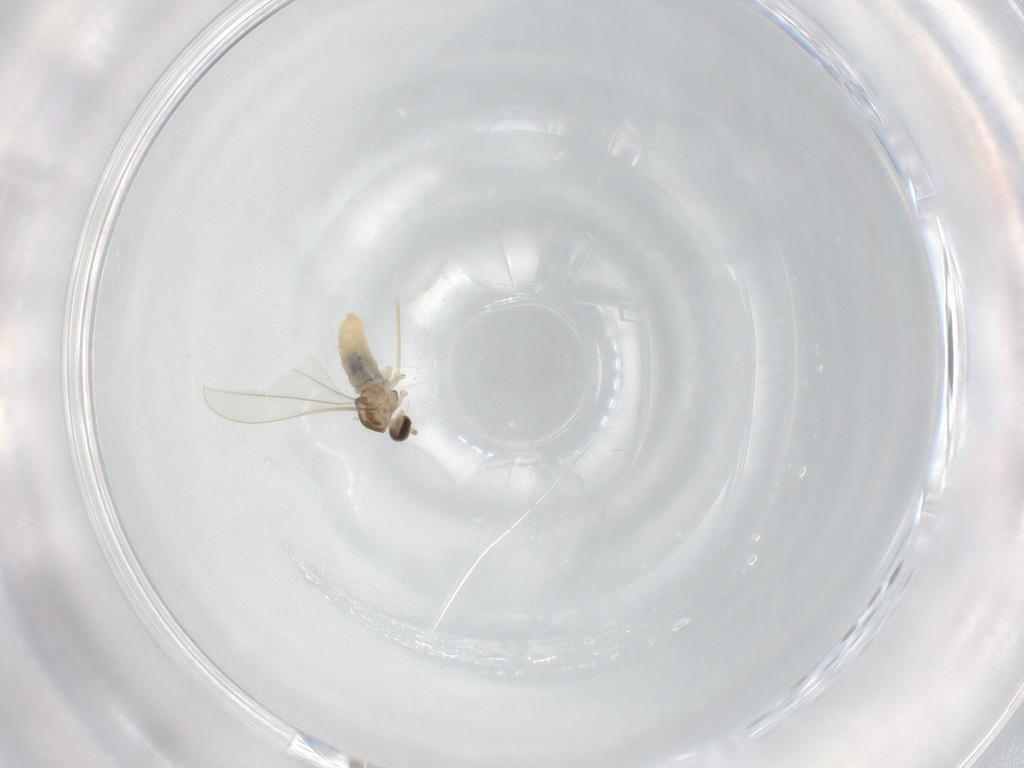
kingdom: Animalia
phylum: Arthropoda
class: Insecta
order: Diptera
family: Cecidomyiidae
